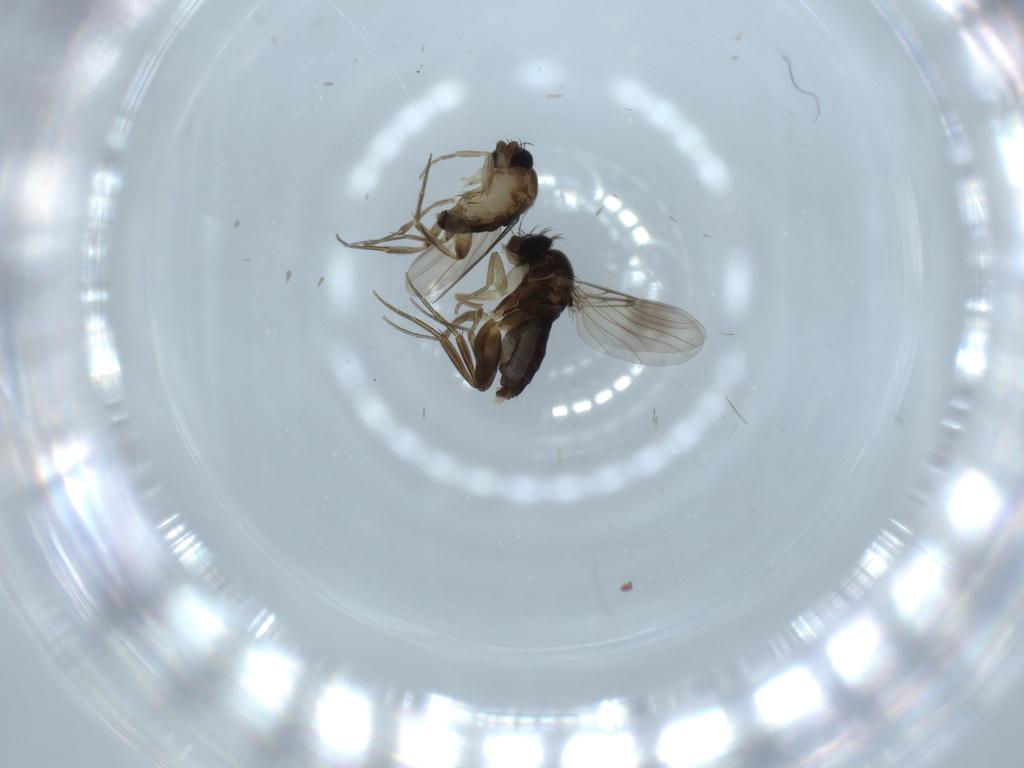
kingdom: Animalia
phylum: Arthropoda
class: Insecta
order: Diptera
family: Phoridae
